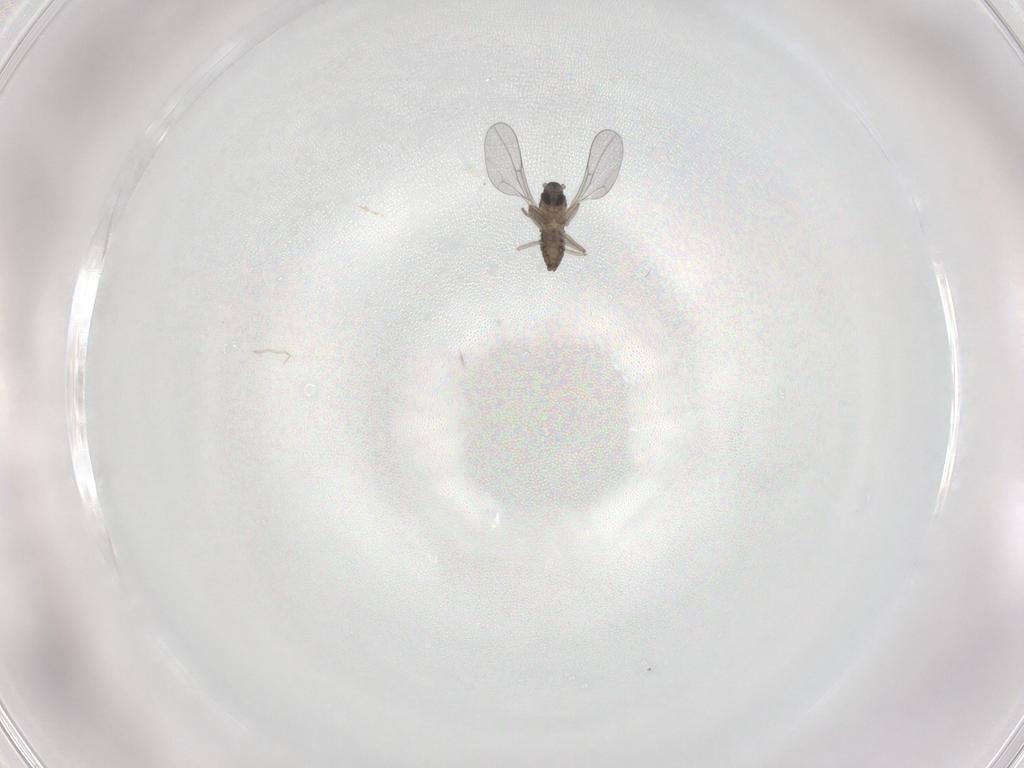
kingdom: Animalia
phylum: Arthropoda
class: Insecta
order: Diptera
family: Cecidomyiidae
